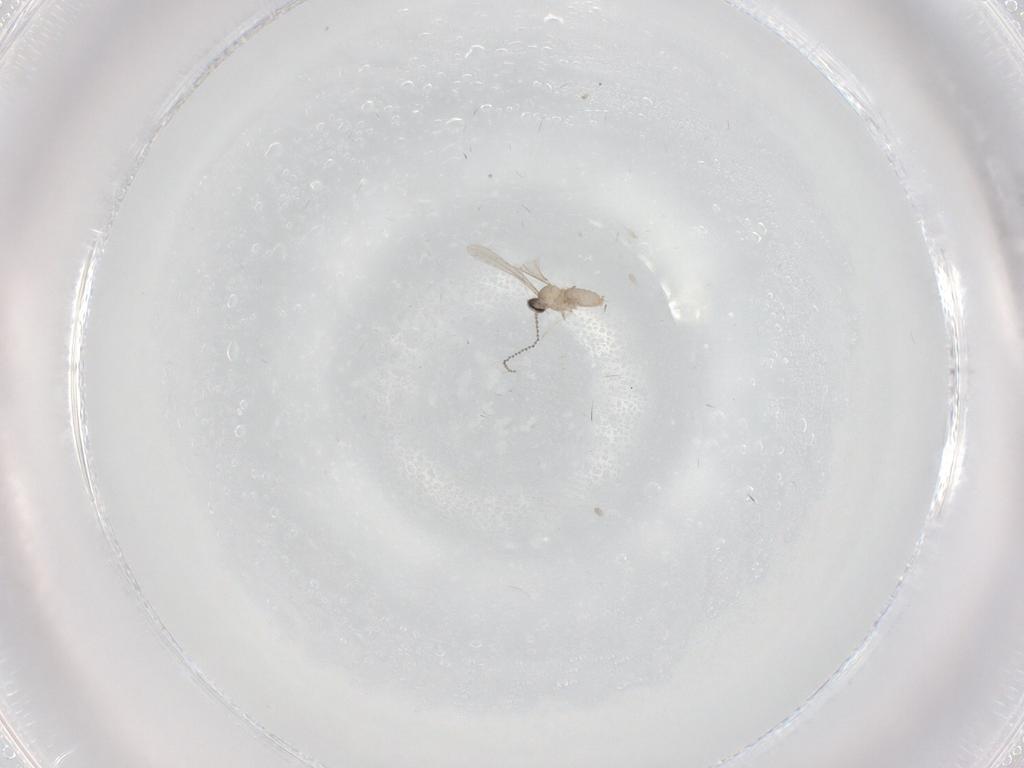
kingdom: Animalia
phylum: Arthropoda
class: Insecta
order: Diptera
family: Cecidomyiidae
